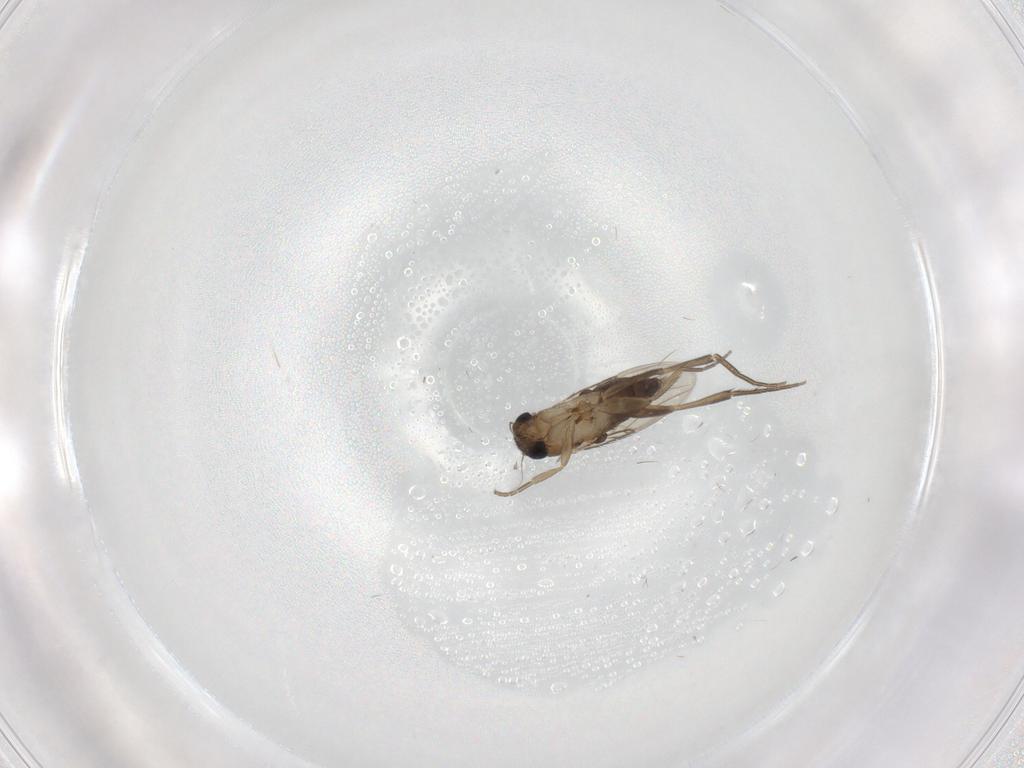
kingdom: Animalia
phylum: Arthropoda
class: Insecta
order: Diptera
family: Phoridae
